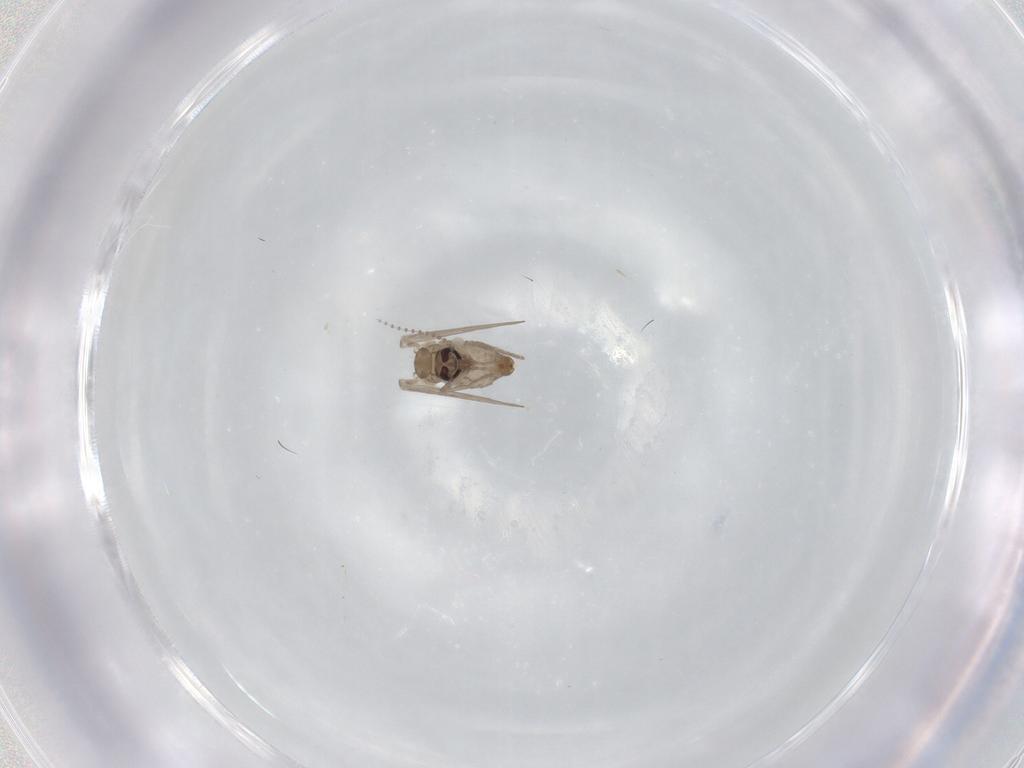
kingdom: Animalia
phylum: Arthropoda
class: Insecta
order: Diptera
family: Psychodidae
